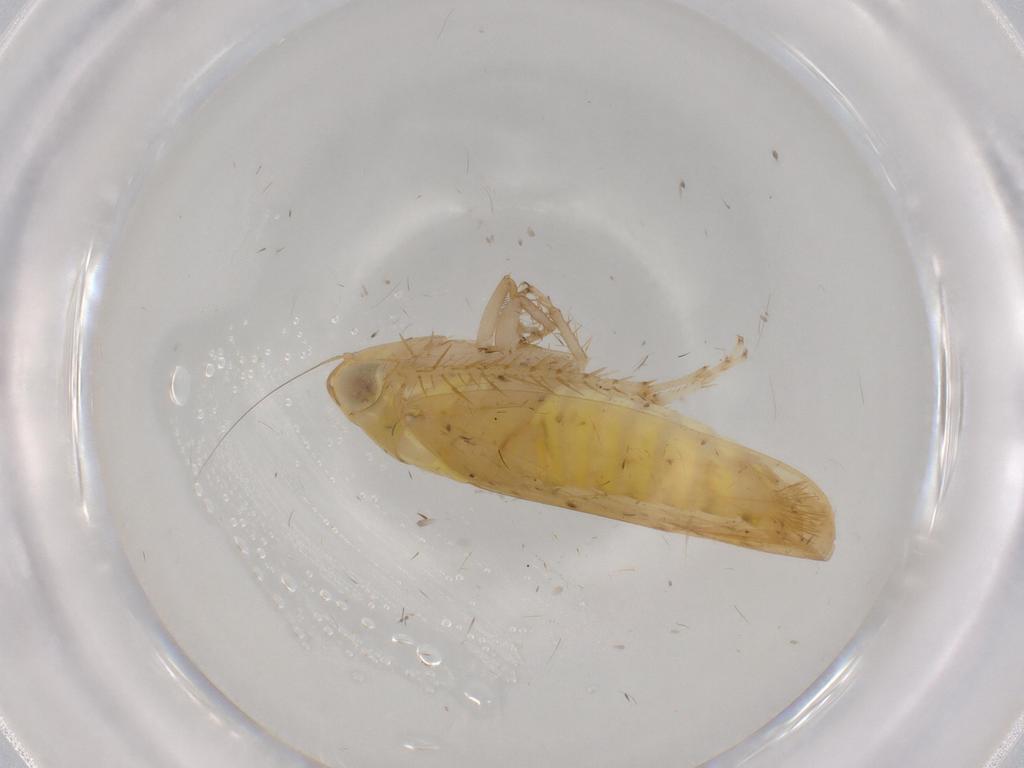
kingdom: Animalia
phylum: Arthropoda
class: Insecta
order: Hemiptera
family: Cicadellidae
